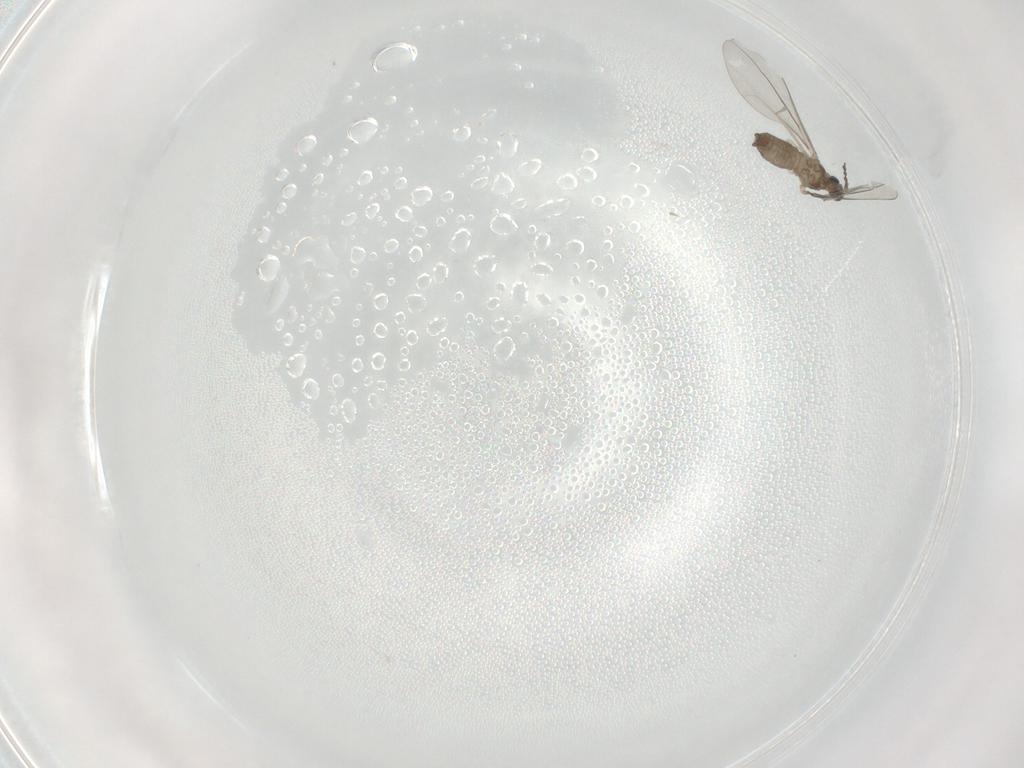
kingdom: Animalia
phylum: Arthropoda
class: Insecta
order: Diptera
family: Cecidomyiidae
